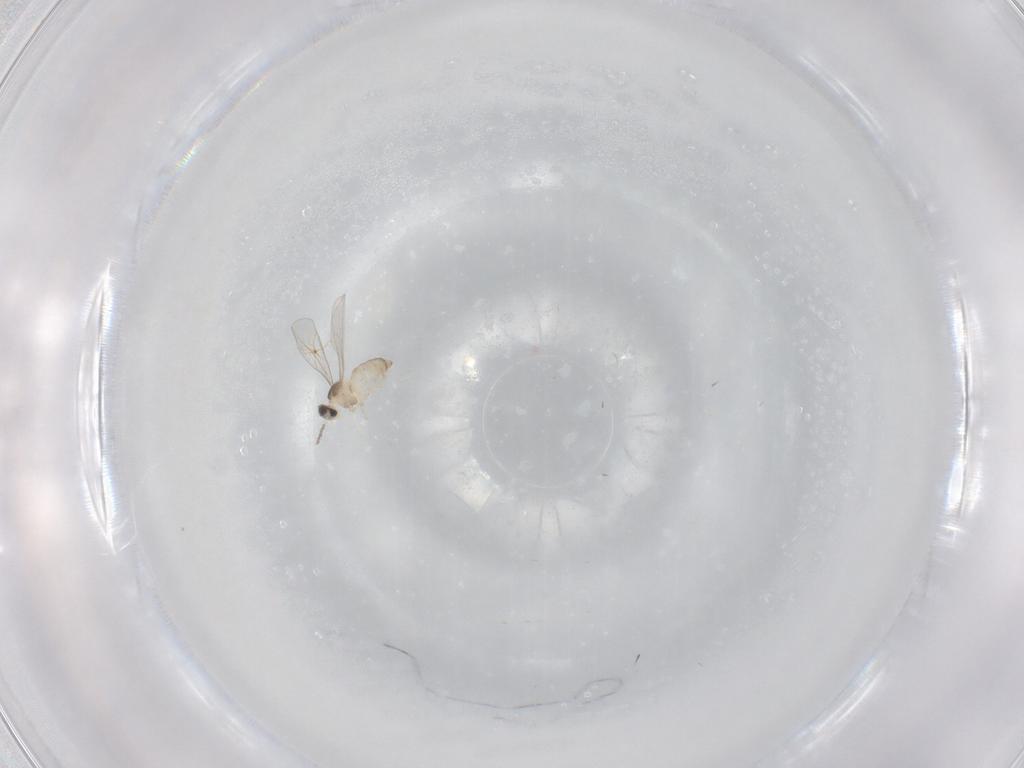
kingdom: Animalia
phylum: Arthropoda
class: Insecta
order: Diptera
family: Cecidomyiidae
